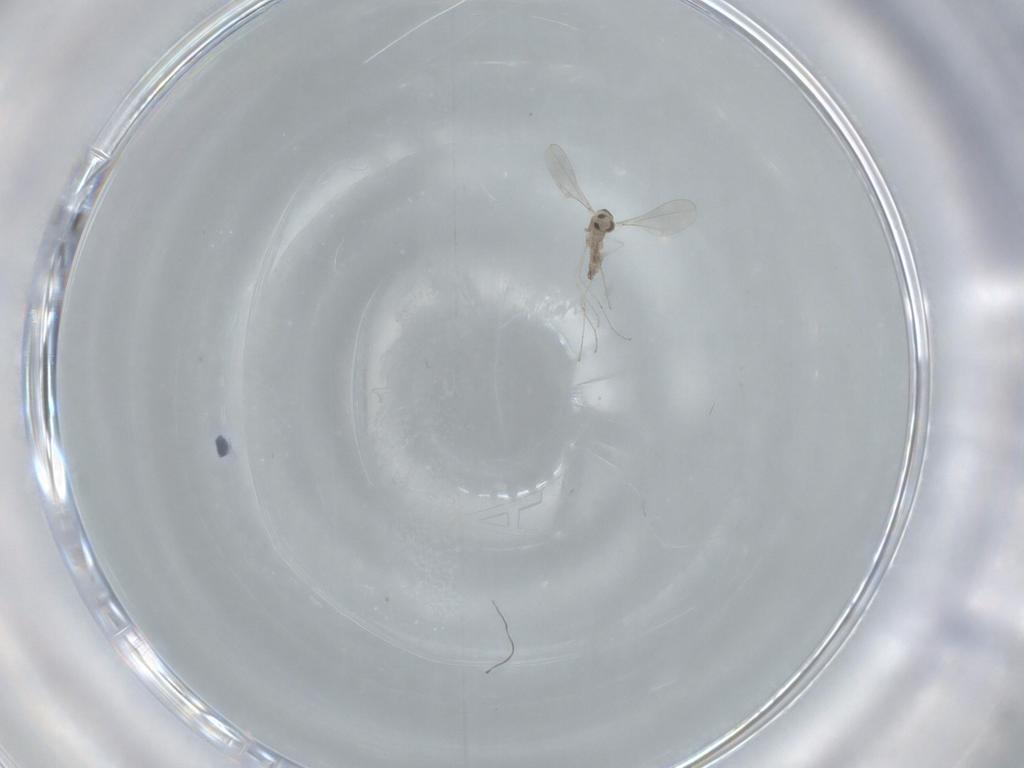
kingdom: Animalia
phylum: Arthropoda
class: Insecta
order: Diptera
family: Cecidomyiidae
